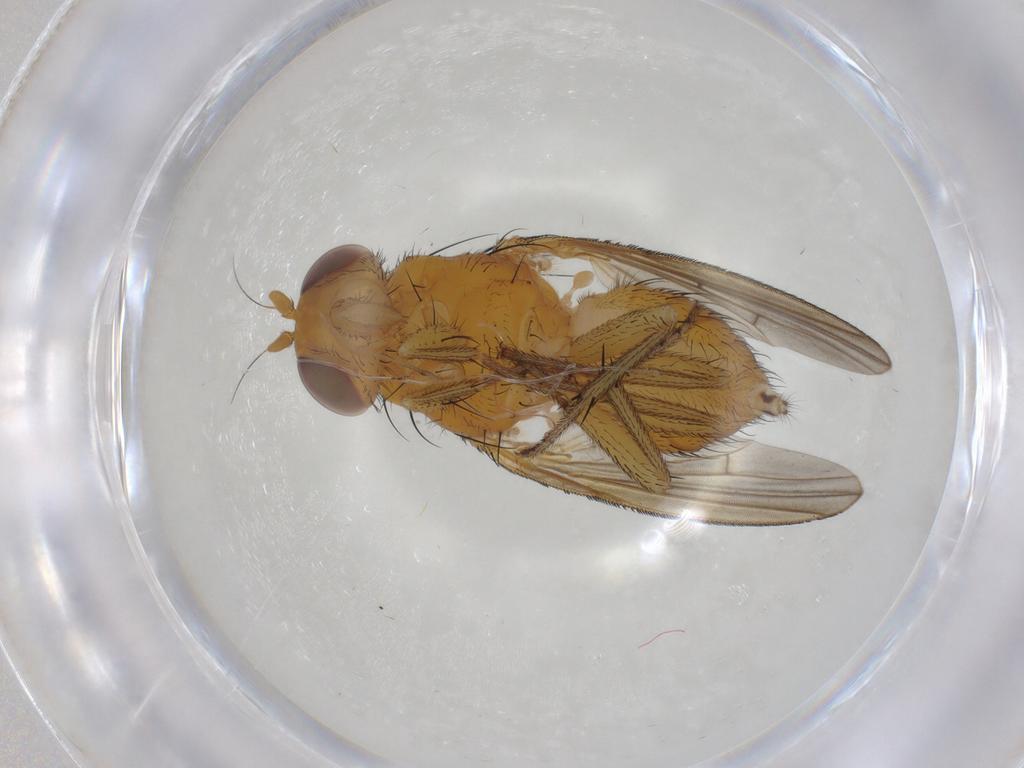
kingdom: Animalia
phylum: Arthropoda
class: Insecta
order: Diptera
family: Lauxaniidae
